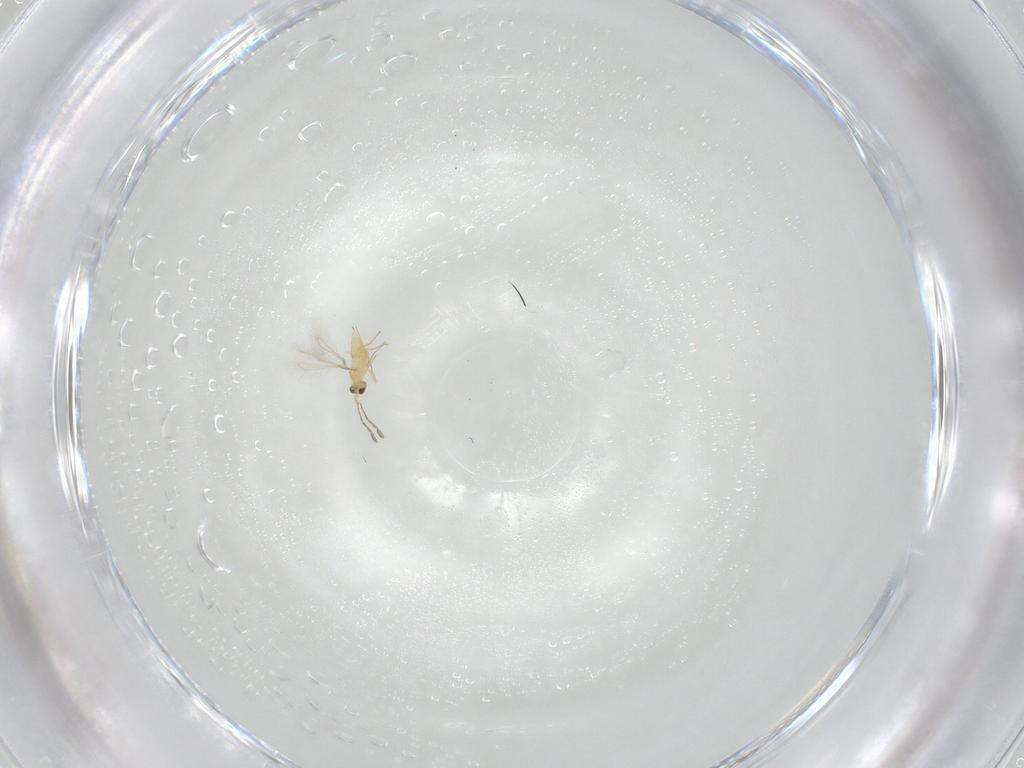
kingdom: Animalia
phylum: Arthropoda
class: Insecta
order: Hymenoptera
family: Mymaridae
